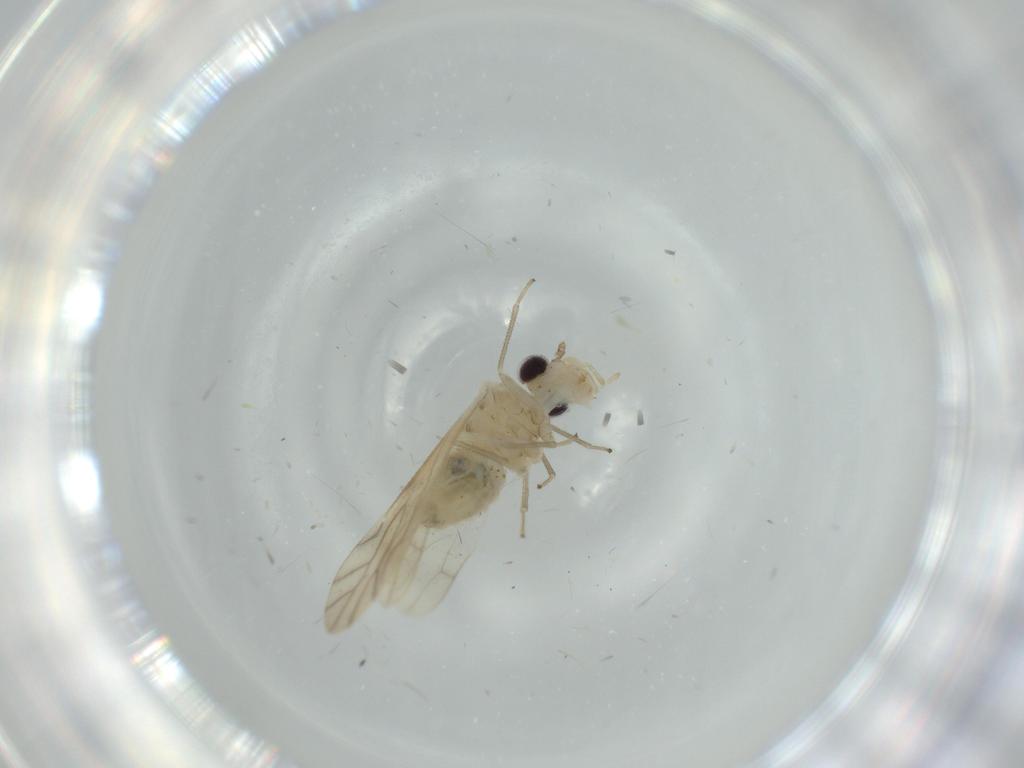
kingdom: Animalia
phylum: Arthropoda
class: Insecta
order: Psocodea
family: Caeciliusidae
